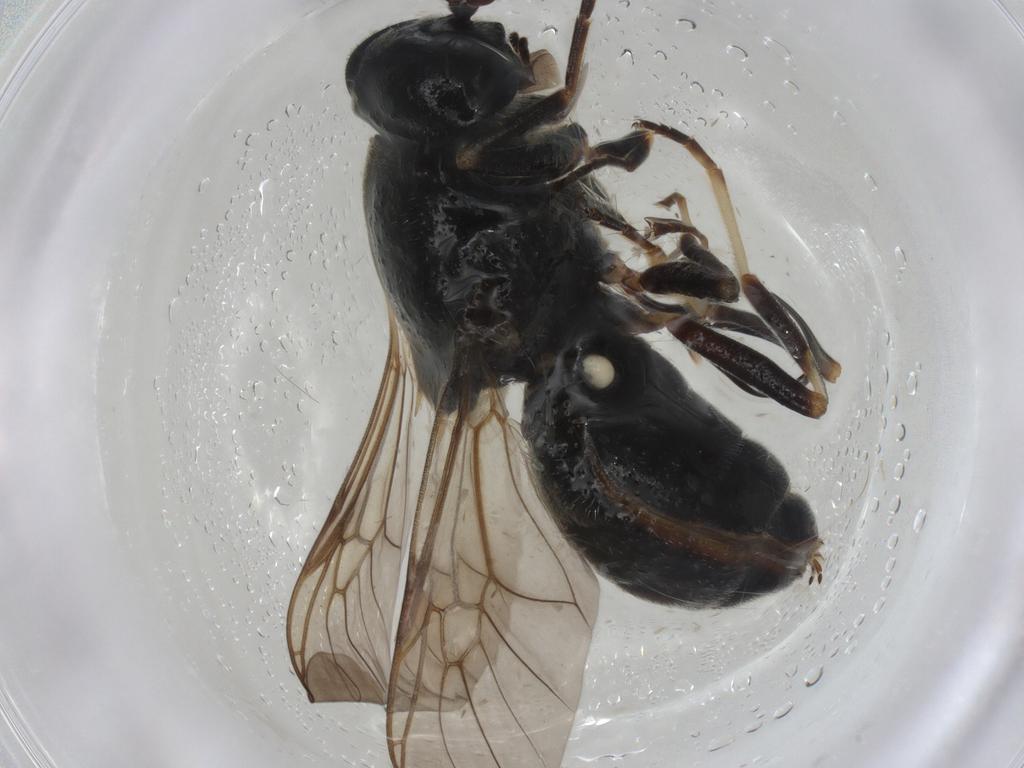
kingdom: Animalia
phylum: Arthropoda
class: Insecta
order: Diptera
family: Stratiomyidae
